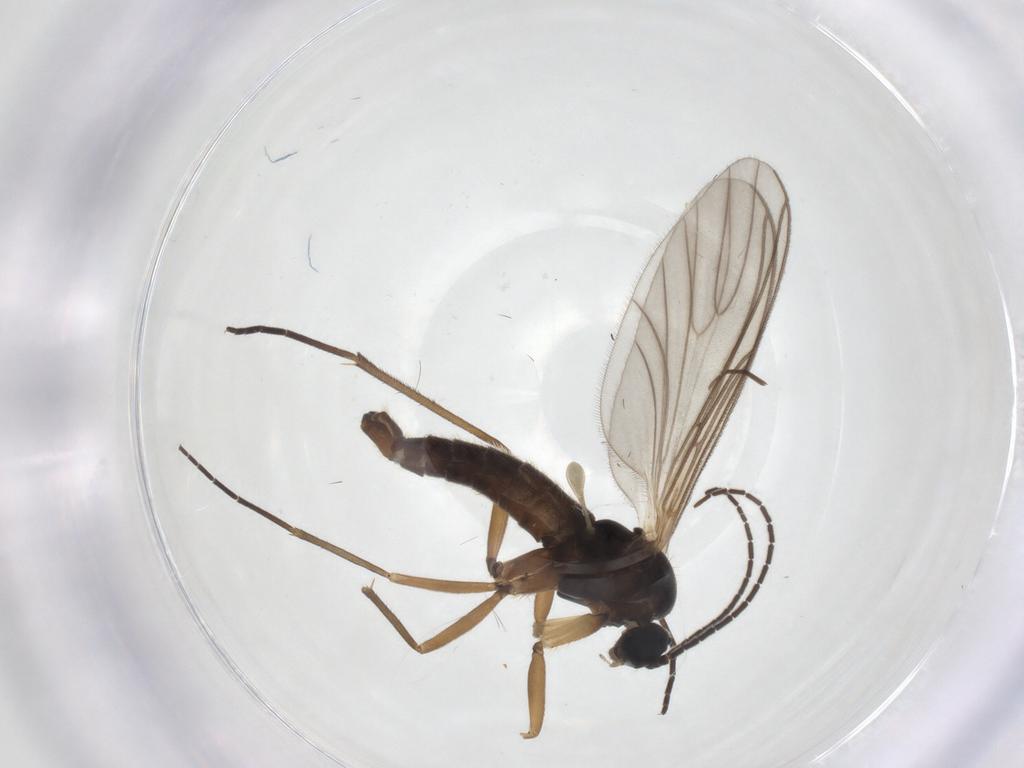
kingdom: Animalia
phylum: Arthropoda
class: Insecta
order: Diptera
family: Sciaridae
